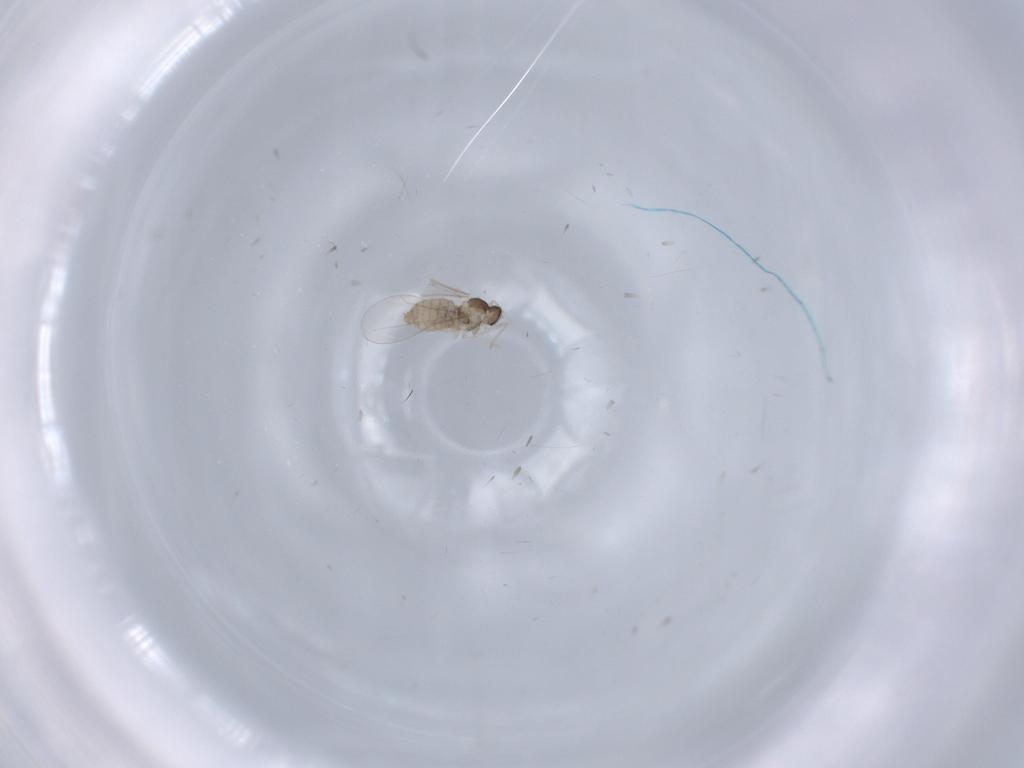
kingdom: Animalia
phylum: Arthropoda
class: Insecta
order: Diptera
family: Cecidomyiidae
